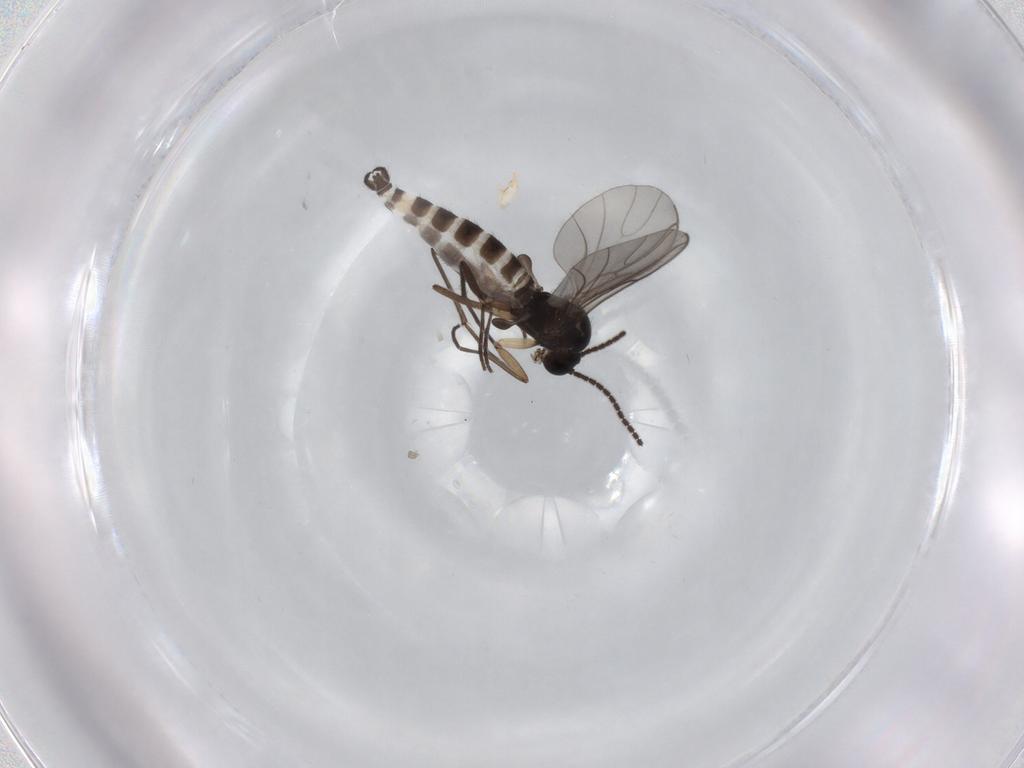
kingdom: Animalia
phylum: Arthropoda
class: Insecta
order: Diptera
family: Sciaridae
